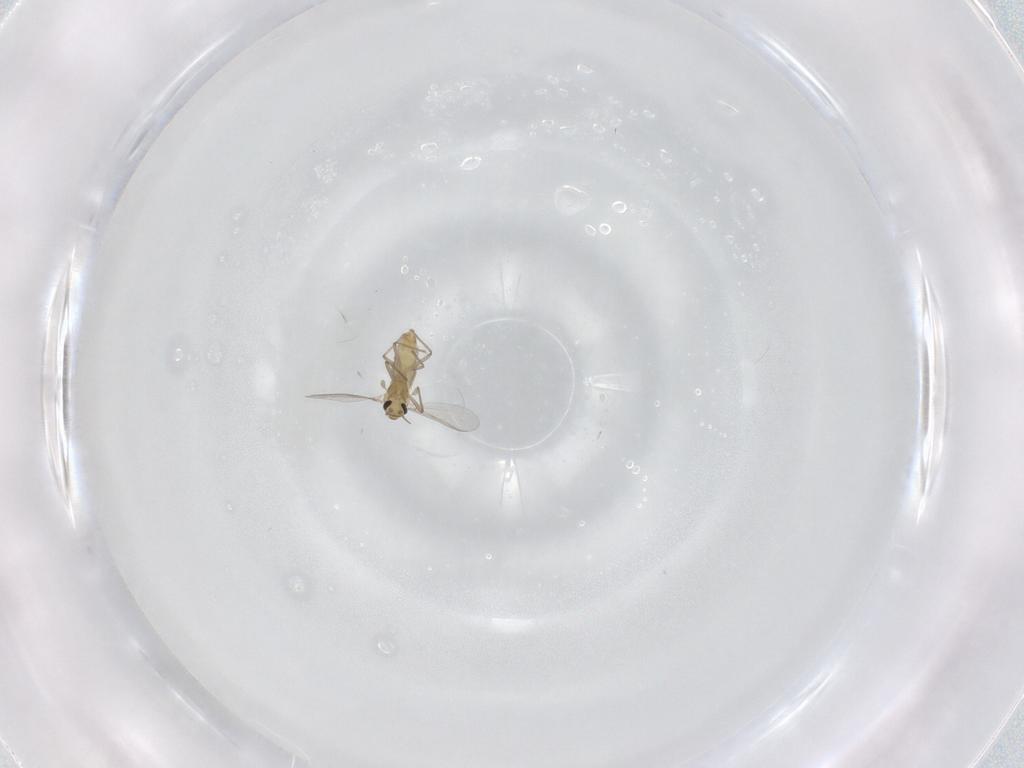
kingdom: Animalia
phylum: Arthropoda
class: Insecta
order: Diptera
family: Chironomidae
